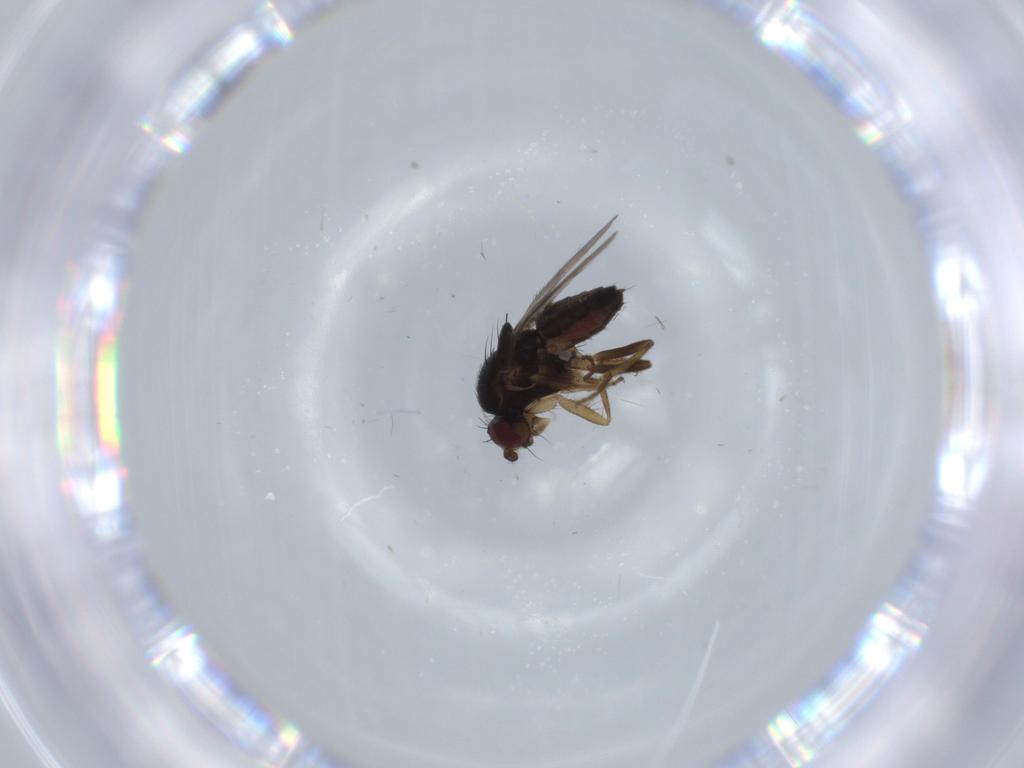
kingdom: Animalia
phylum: Arthropoda
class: Insecta
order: Diptera
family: Sphaeroceridae
